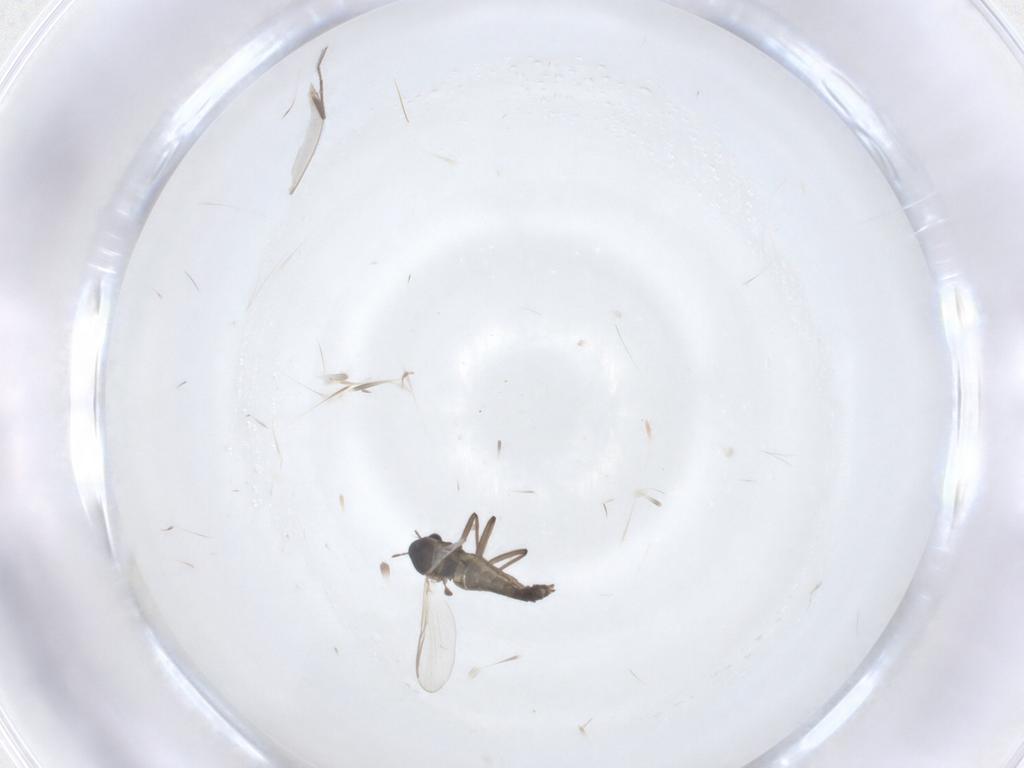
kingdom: Animalia
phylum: Arthropoda
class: Insecta
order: Diptera
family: Chironomidae
